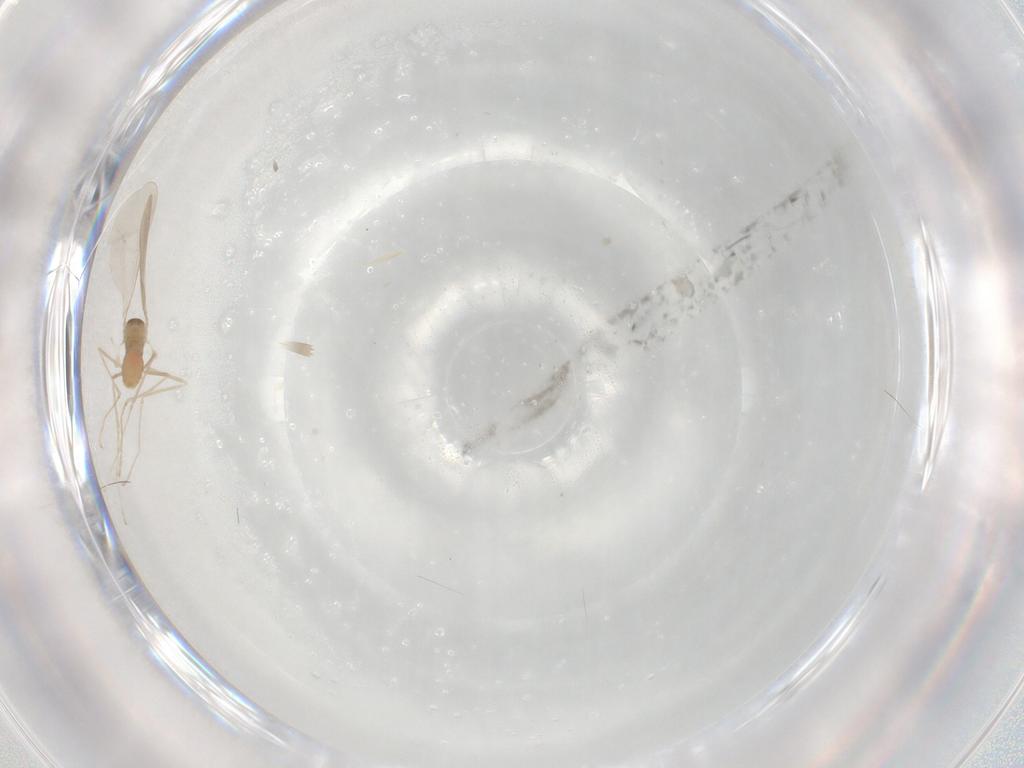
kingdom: Animalia
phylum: Arthropoda
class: Insecta
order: Diptera
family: Cecidomyiidae
